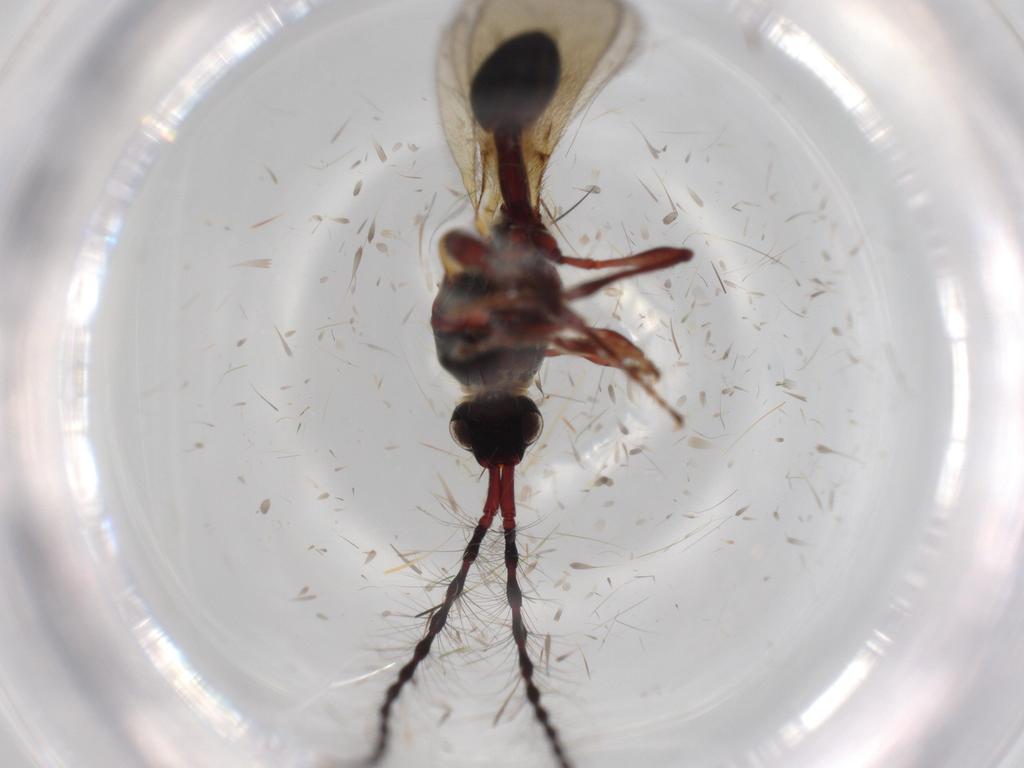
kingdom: Animalia
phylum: Arthropoda
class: Insecta
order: Hymenoptera
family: Diapriidae
